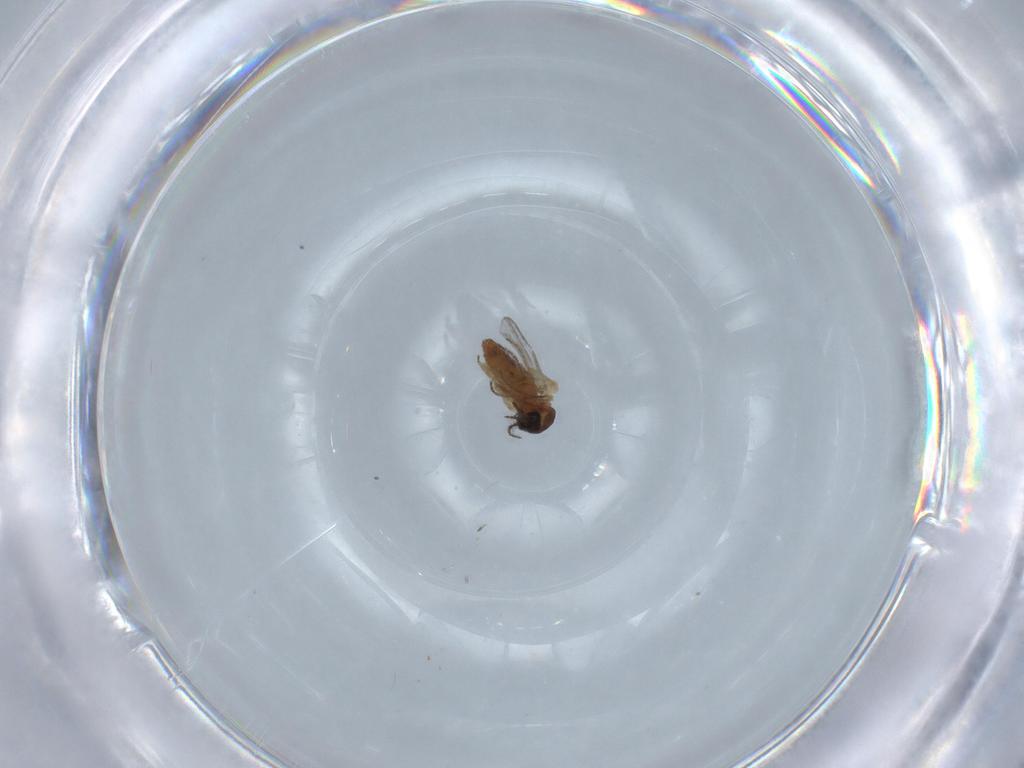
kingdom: Animalia
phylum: Arthropoda
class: Insecta
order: Diptera
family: Ceratopogonidae
